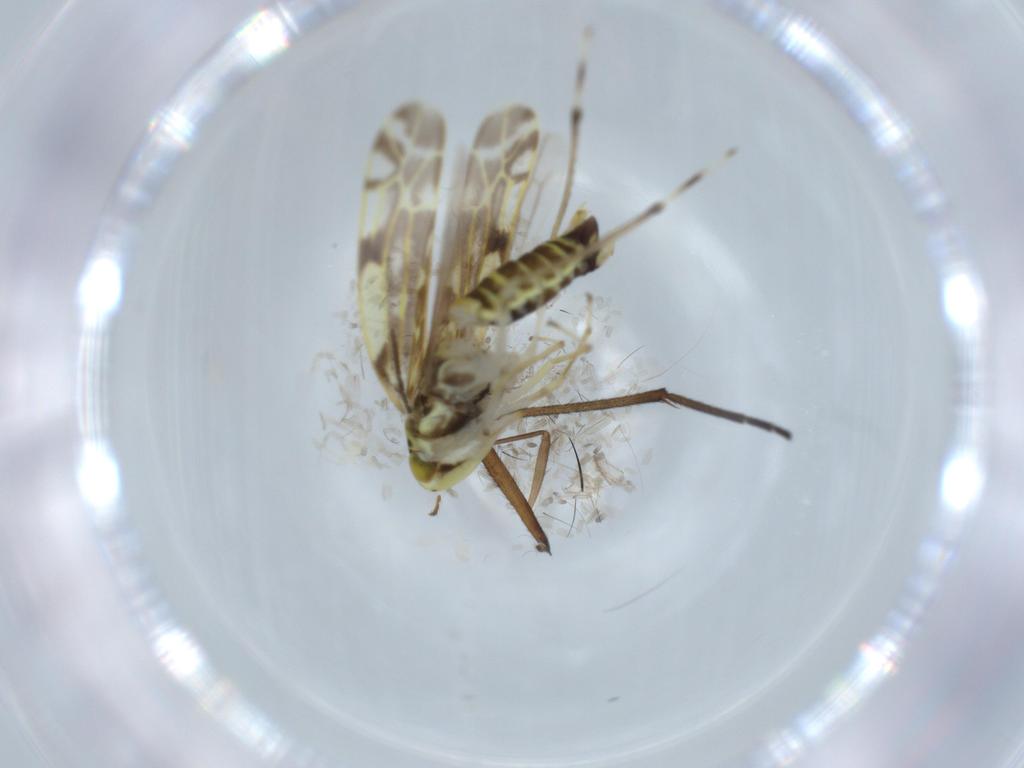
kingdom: Animalia
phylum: Arthropoda
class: Insecta
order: Hemiptera
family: Cicadellidae
